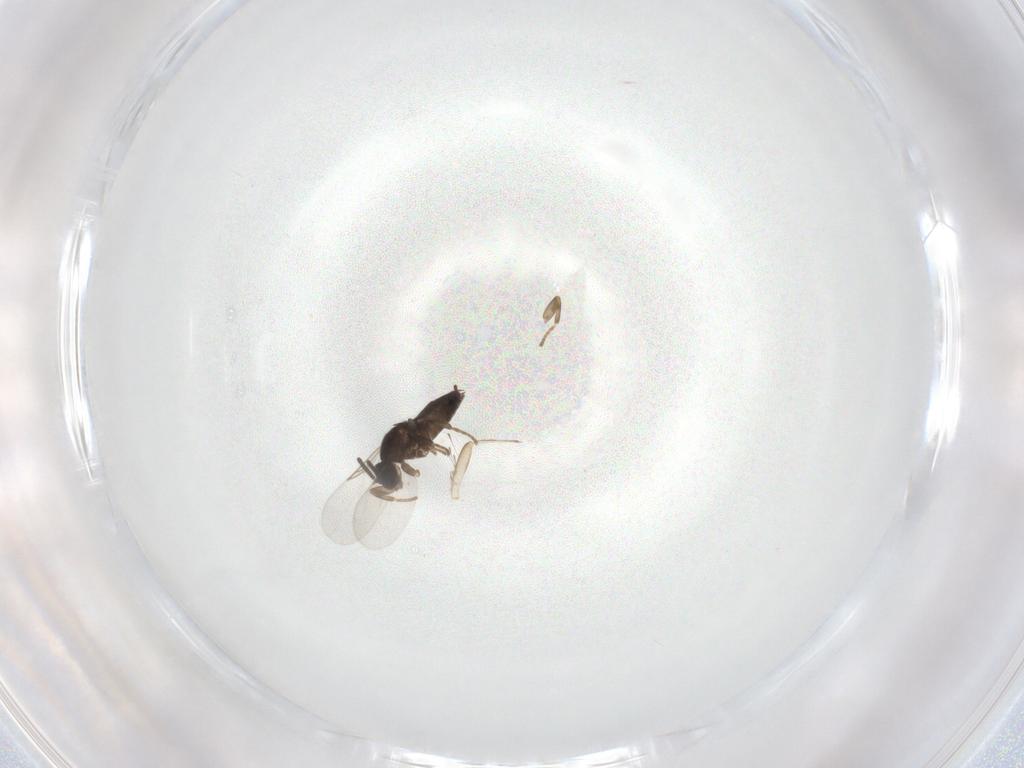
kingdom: Animalia
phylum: Arthropoda
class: Insecta
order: Diptera
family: Scatopsidae
